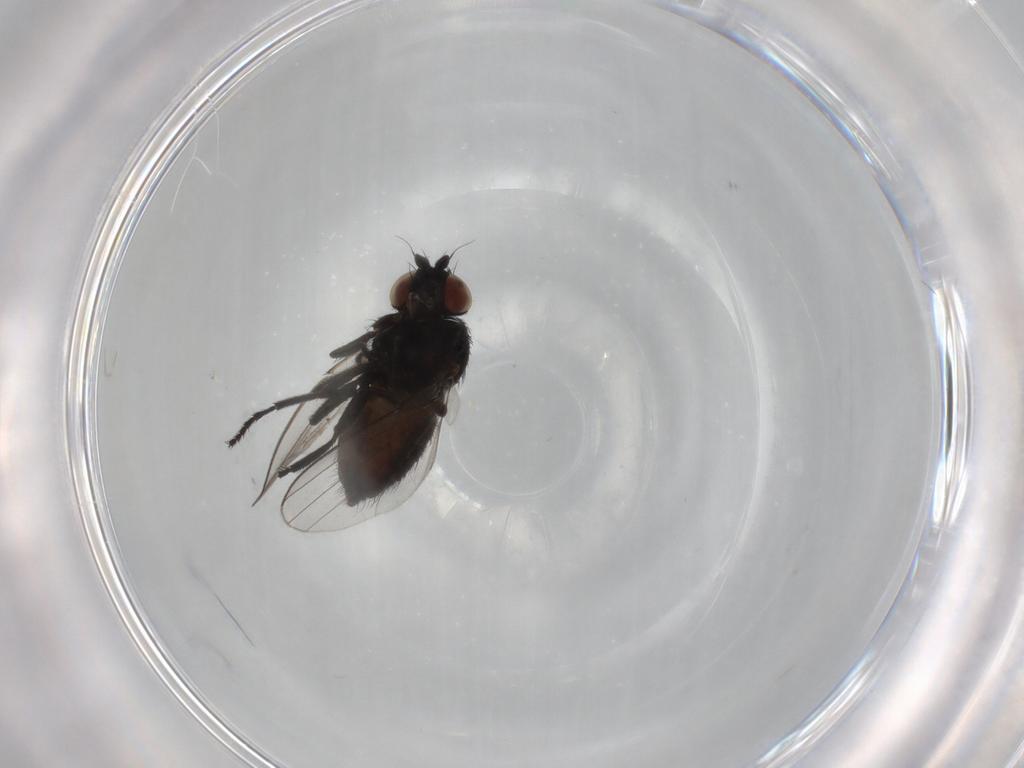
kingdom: Animalia
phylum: Arthropoda
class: Insecta
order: Diptera
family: Milichiidae
